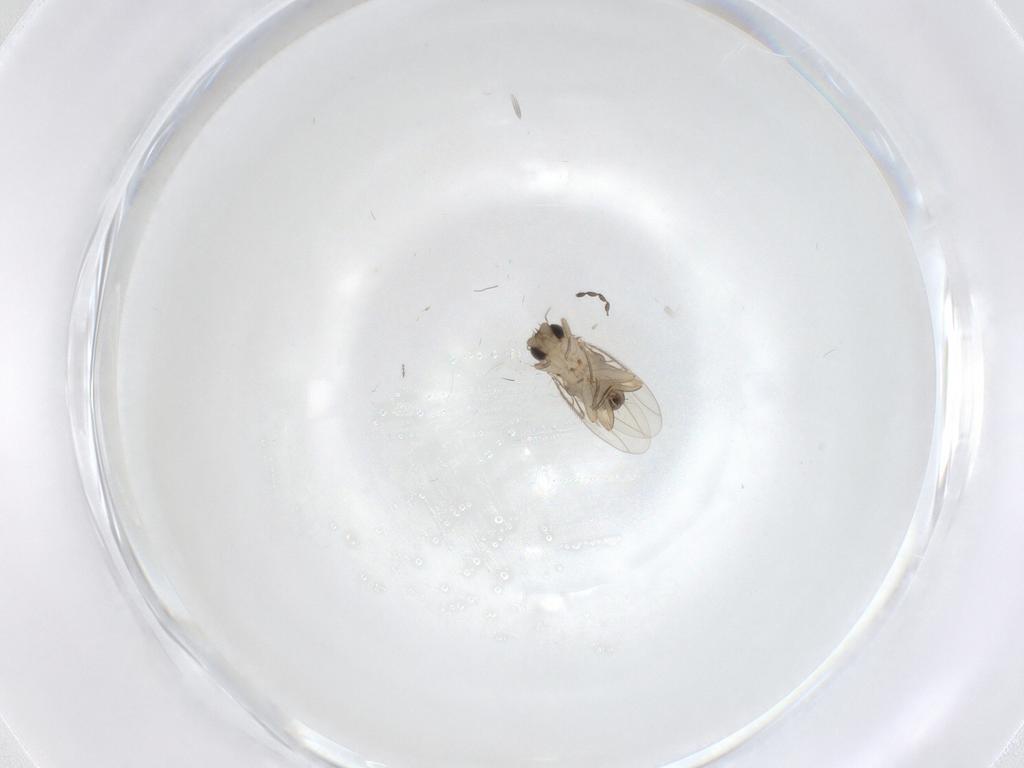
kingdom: Animalia
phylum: Arthropoda
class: Insecta
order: Diptera
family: Phoridae
